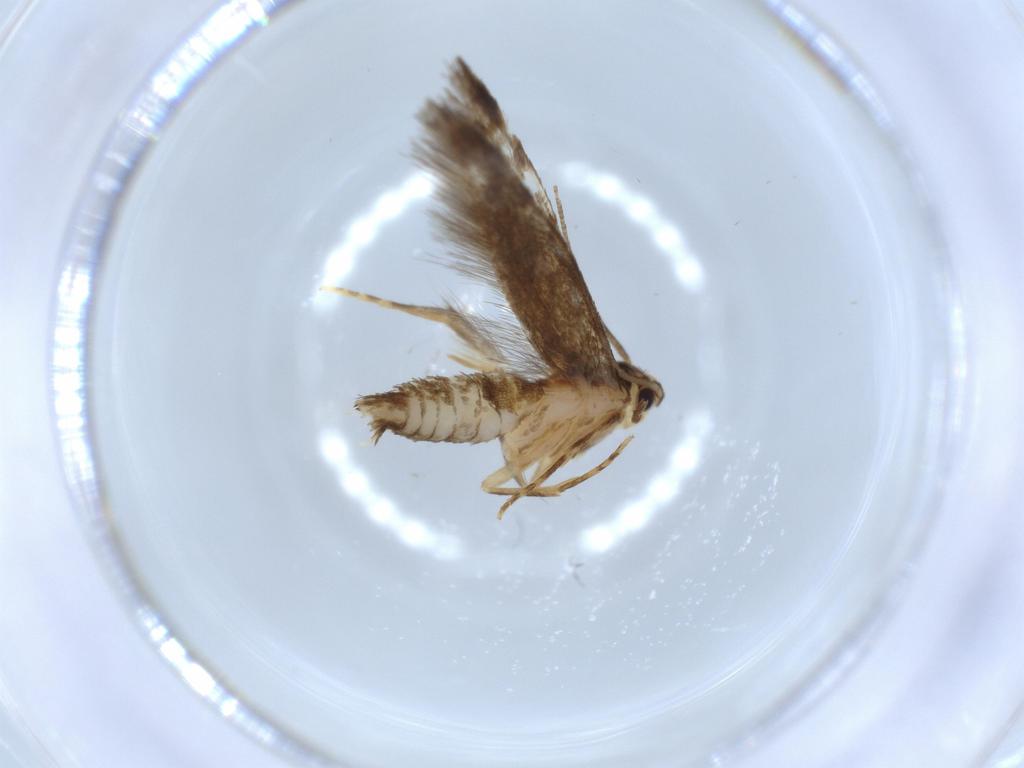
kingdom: Animalia
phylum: Arthropoda
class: Insecta
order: Lepidoptera
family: Tineidae
